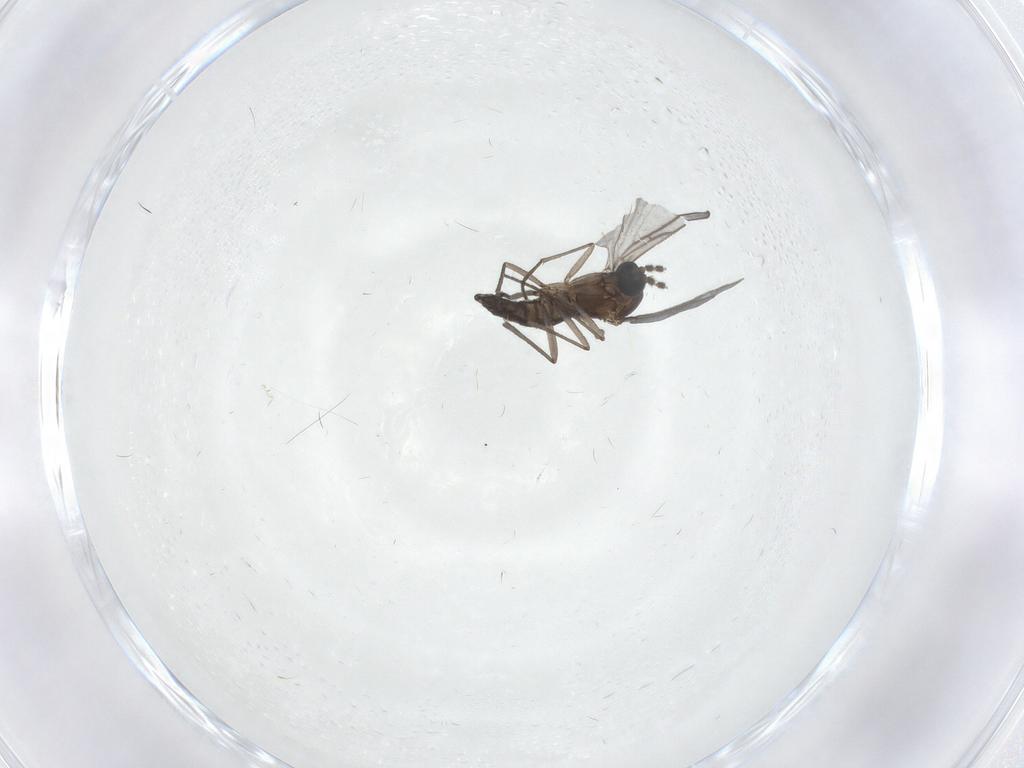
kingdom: Animalia
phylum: Arthropoda
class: Insecta
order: Diptera
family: Sciaridae
